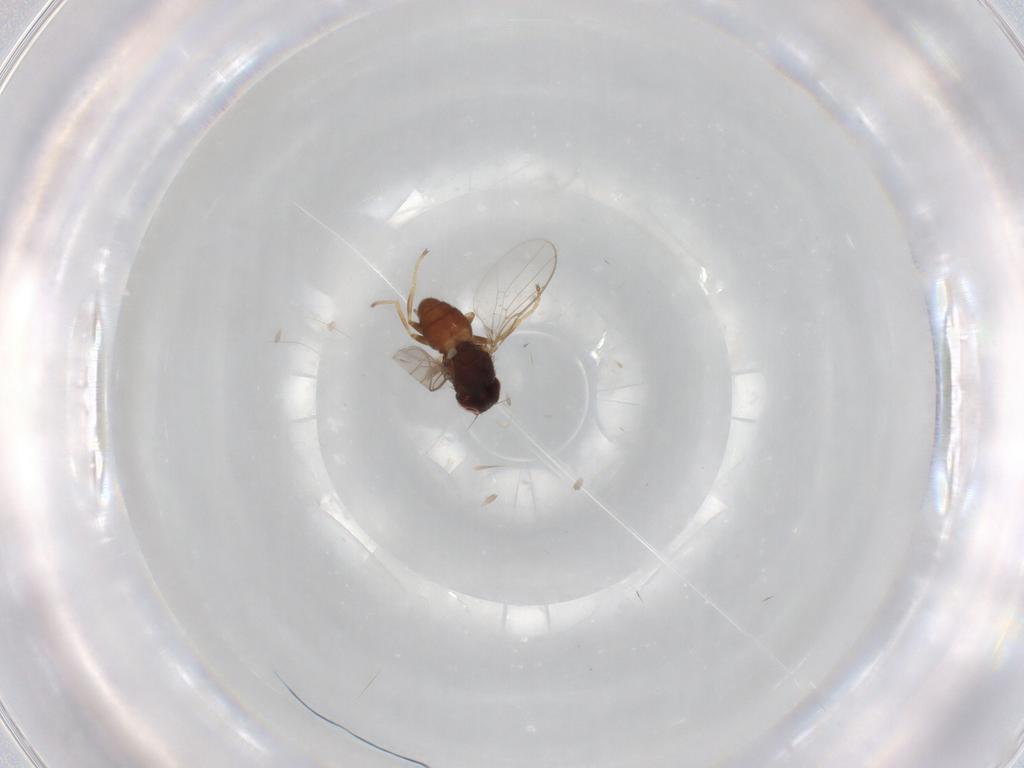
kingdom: Animalia
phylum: Arthropoda
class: Insecta
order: Diptera
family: Chloropidae
